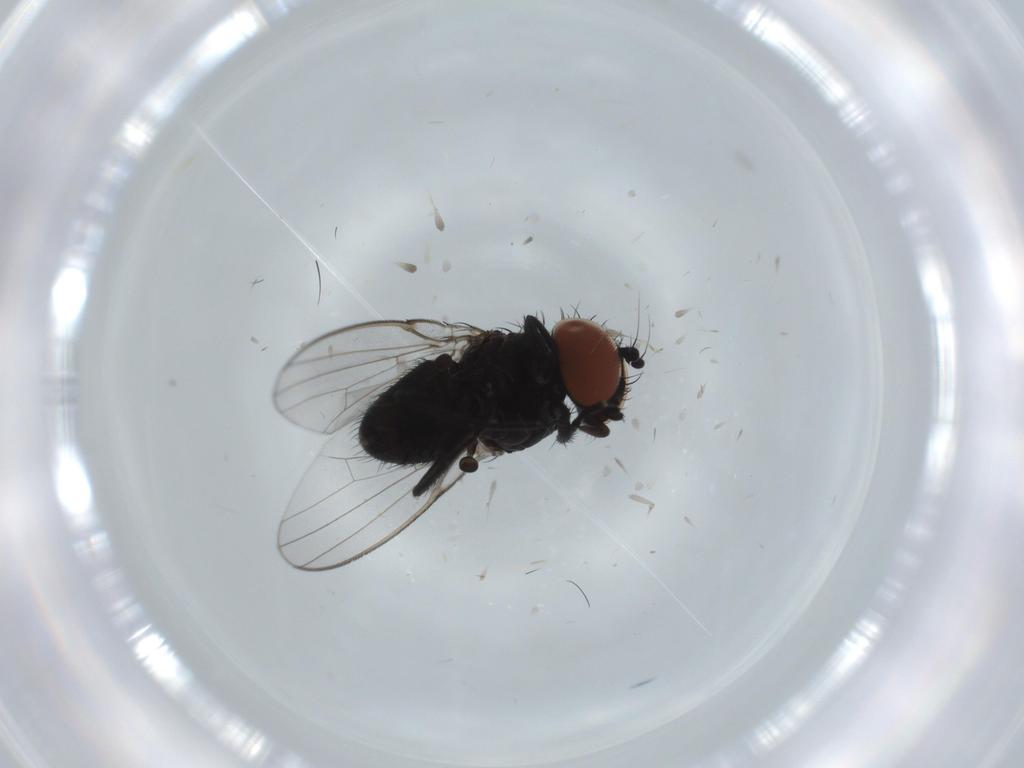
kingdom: Animalia
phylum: Arthropoda
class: Insecta
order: Diptera
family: Milichiidae
